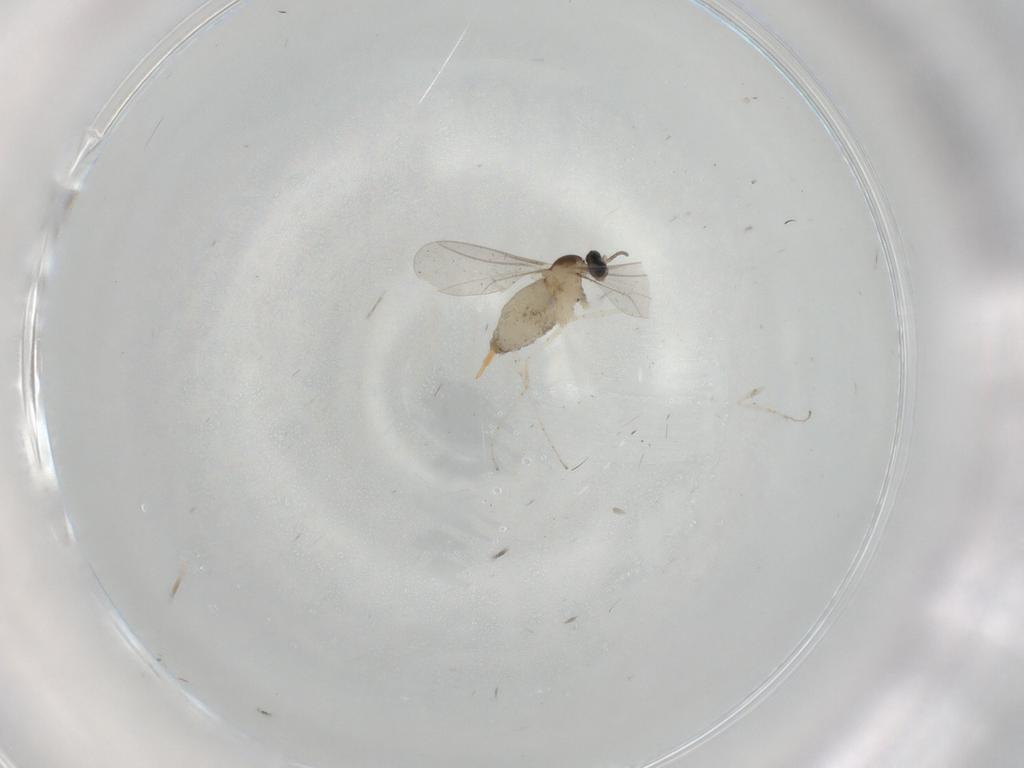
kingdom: Animalia
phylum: Arthropoda
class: Insecta
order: Diptera
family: Cecidomyiidae
